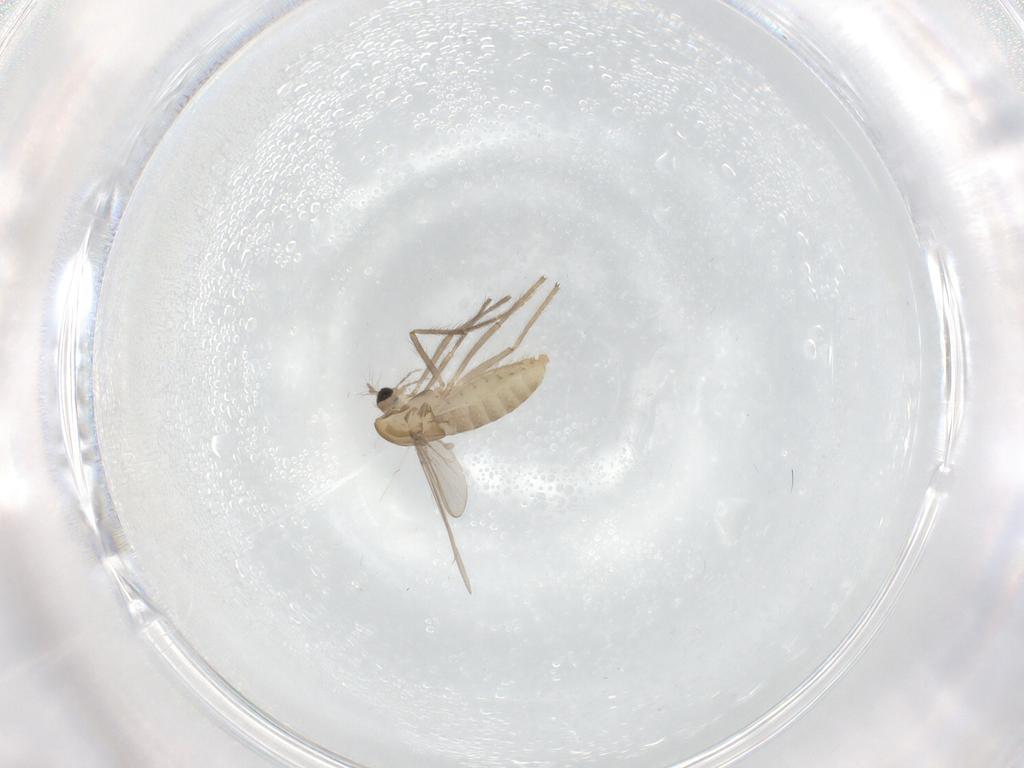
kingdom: Animalia
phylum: Arthropoda
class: Insecta
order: Diptera
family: Chironomidae
